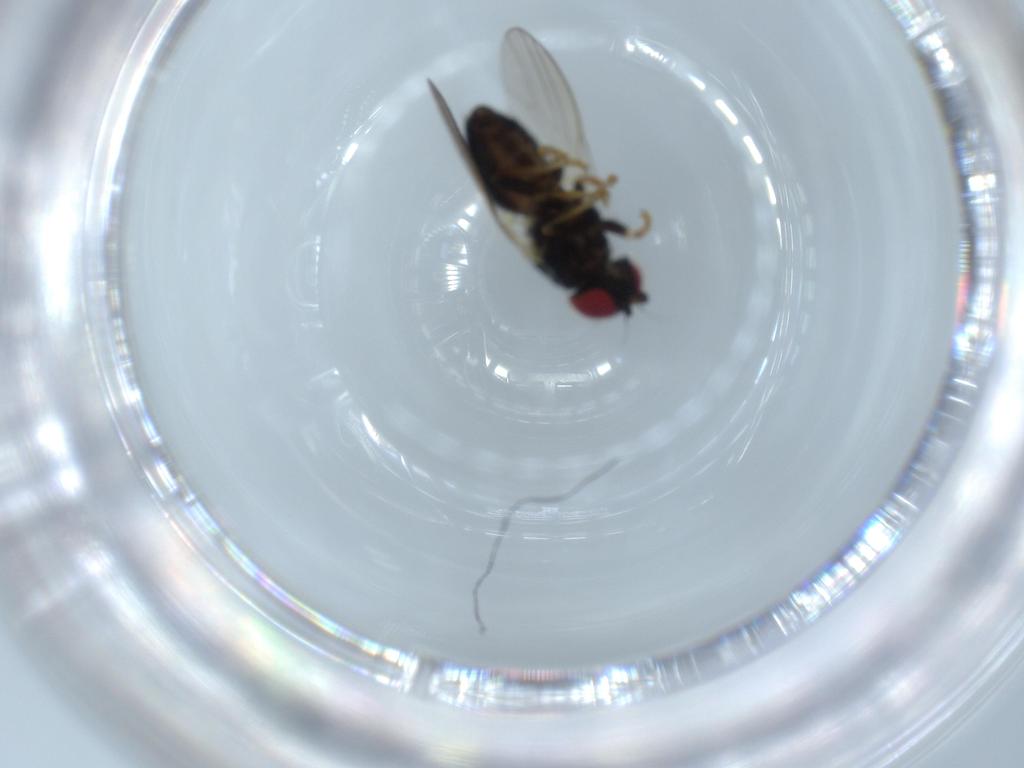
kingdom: Animalia
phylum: Arthropoda
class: Insecta
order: Diptera
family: Chamaemyiidae
